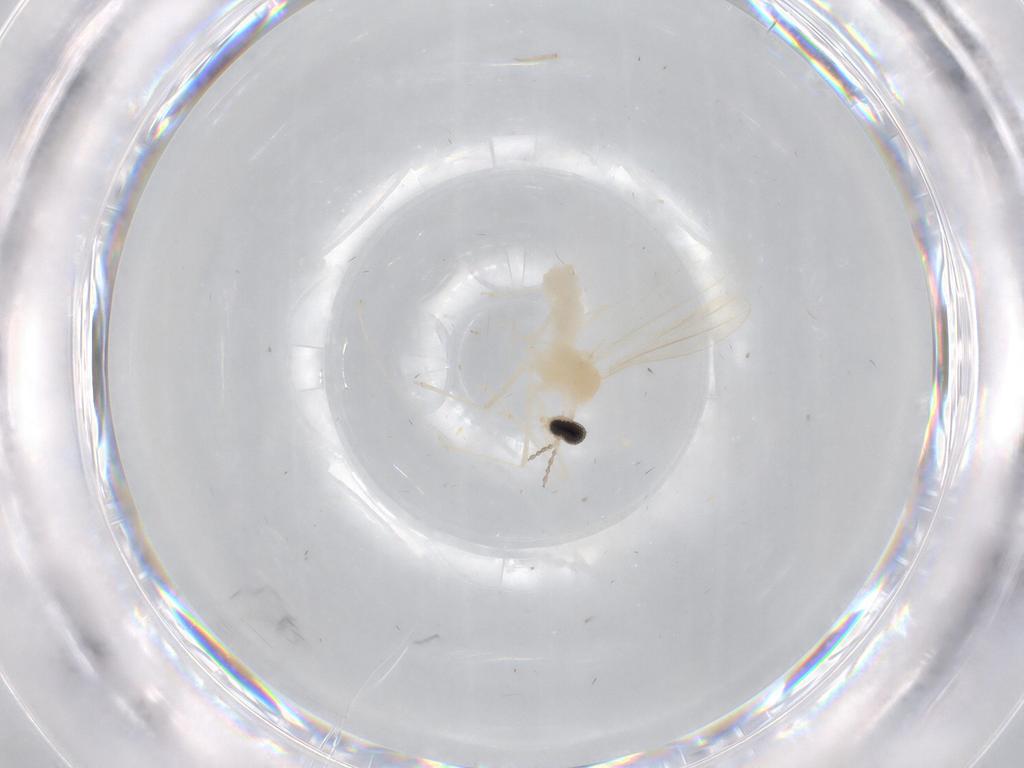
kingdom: Animalia
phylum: Arthropoda
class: Insecta
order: Diptera
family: Cecidomyiidae
